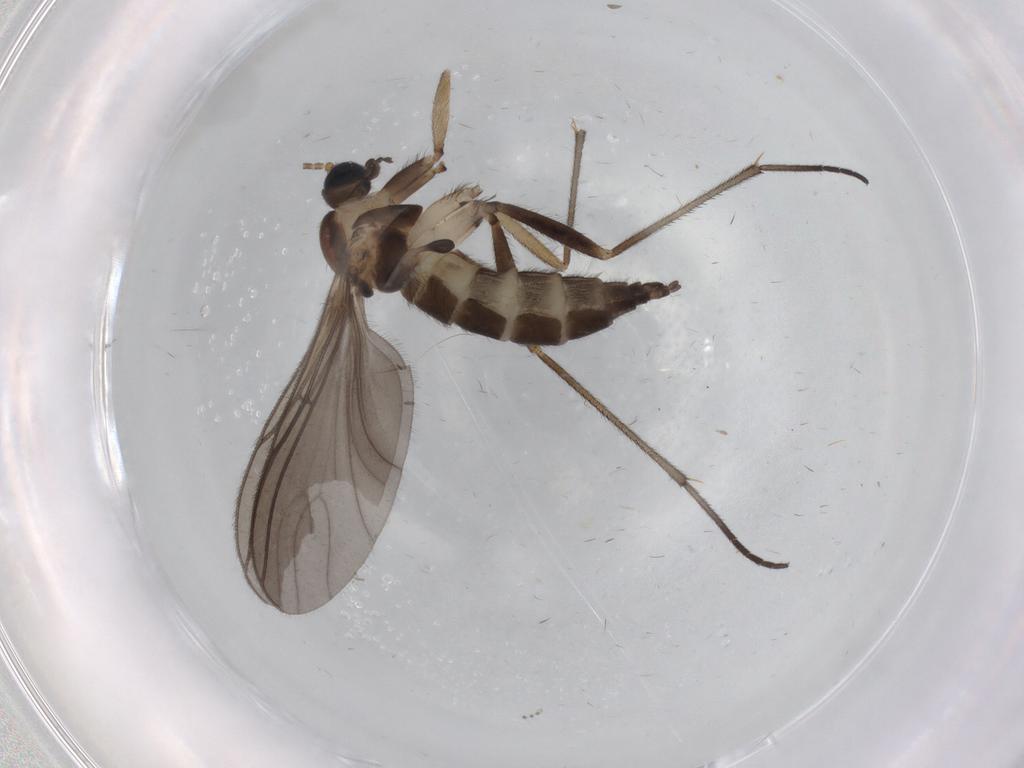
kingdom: Animalia
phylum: Arthropoda
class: Insecta
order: Diptera
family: Sciaridae
